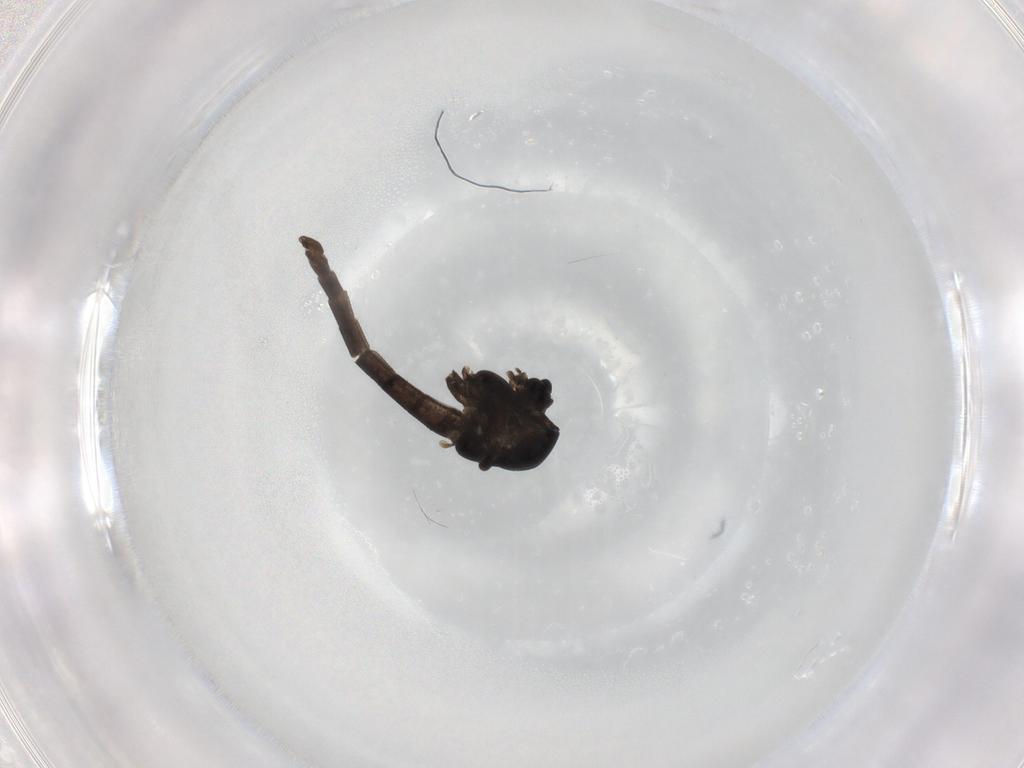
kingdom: Animalia
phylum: Arthropoda
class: Insecta
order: Diptera
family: Chironomidae
